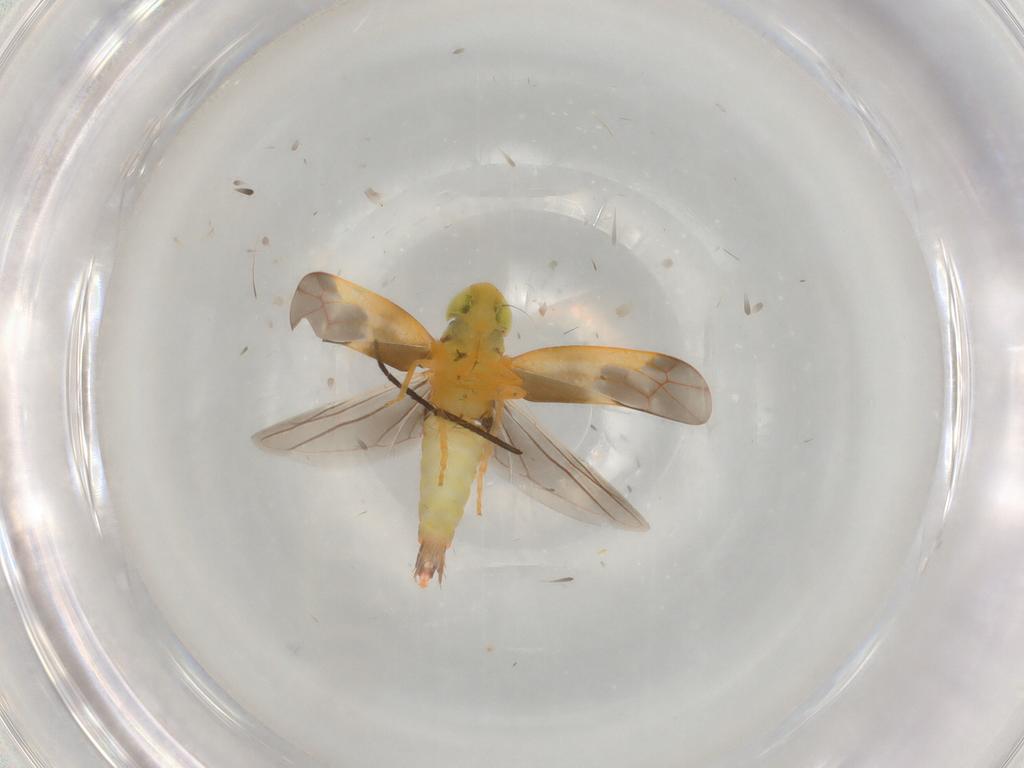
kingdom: Animalia
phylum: Arthropoda
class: Insecta
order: Hemiptera
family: Cicadellidae
